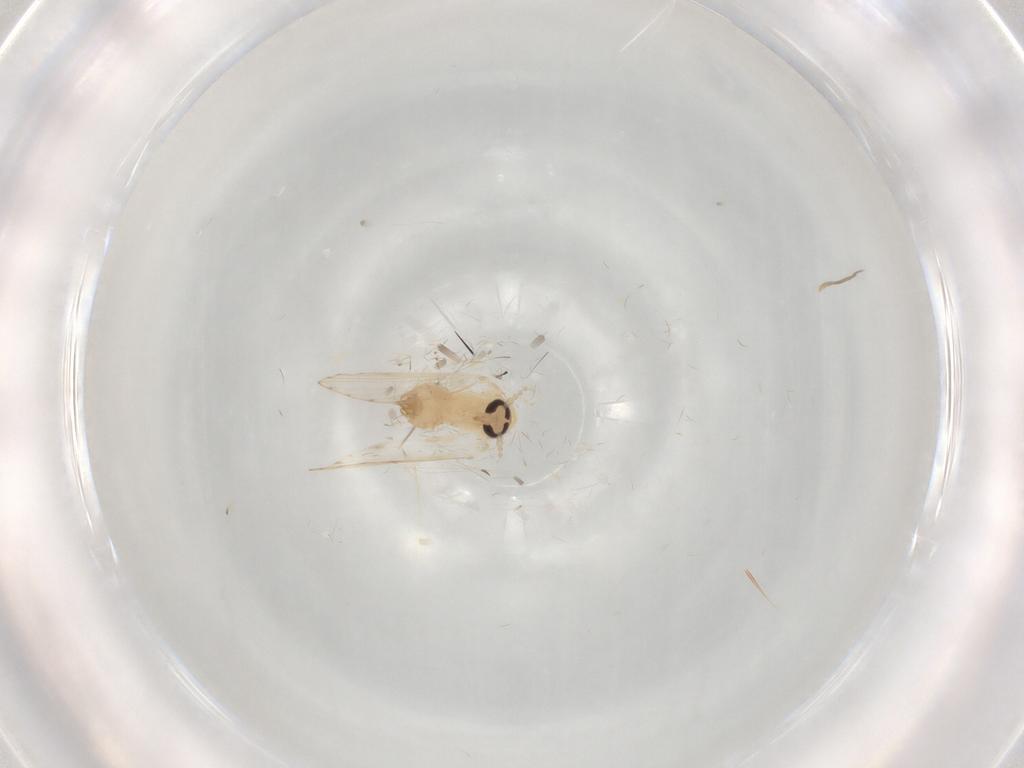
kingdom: Animalia
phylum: Arthropoda
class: Insecta
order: Diptera
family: Psychodidae
